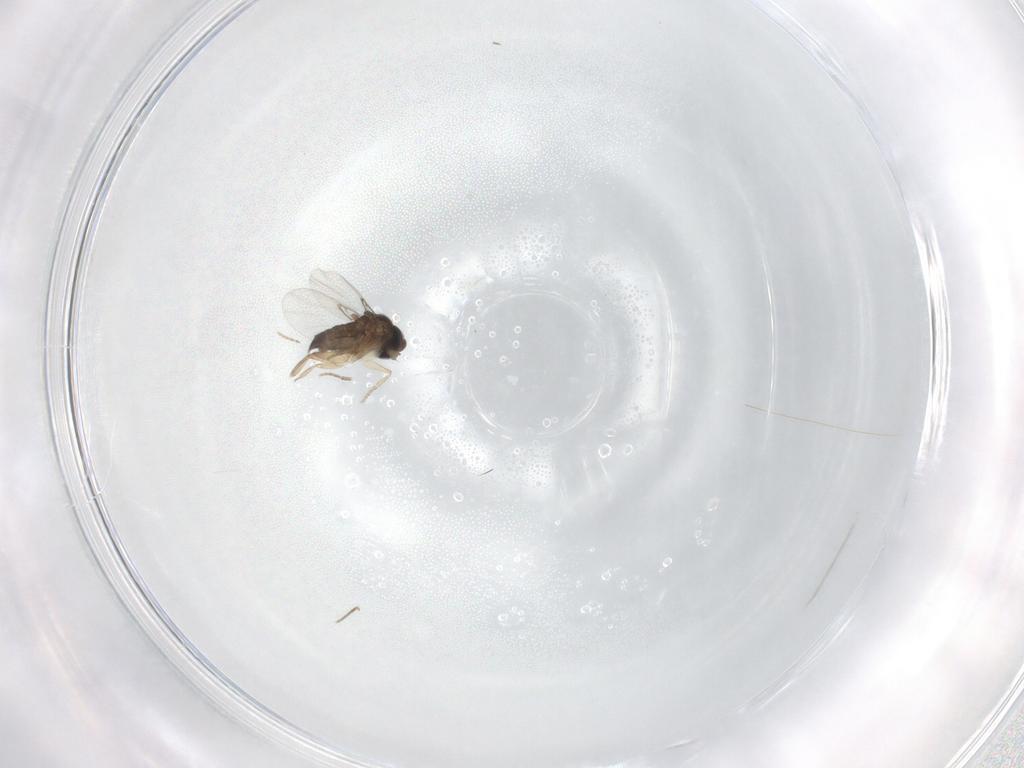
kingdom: Animalia
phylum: Arthropoda
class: Insecta
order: Diptera
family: Phoridae
